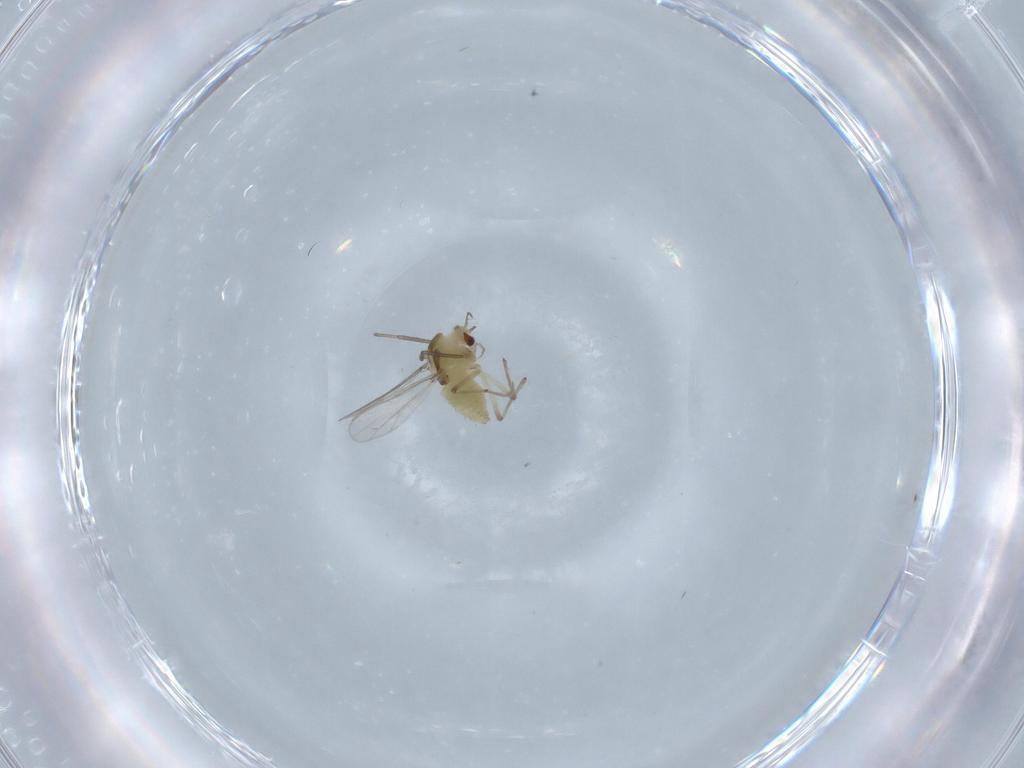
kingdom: Animalia
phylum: Arthropoda
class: Insecta
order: Diptera
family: Chironomidae
